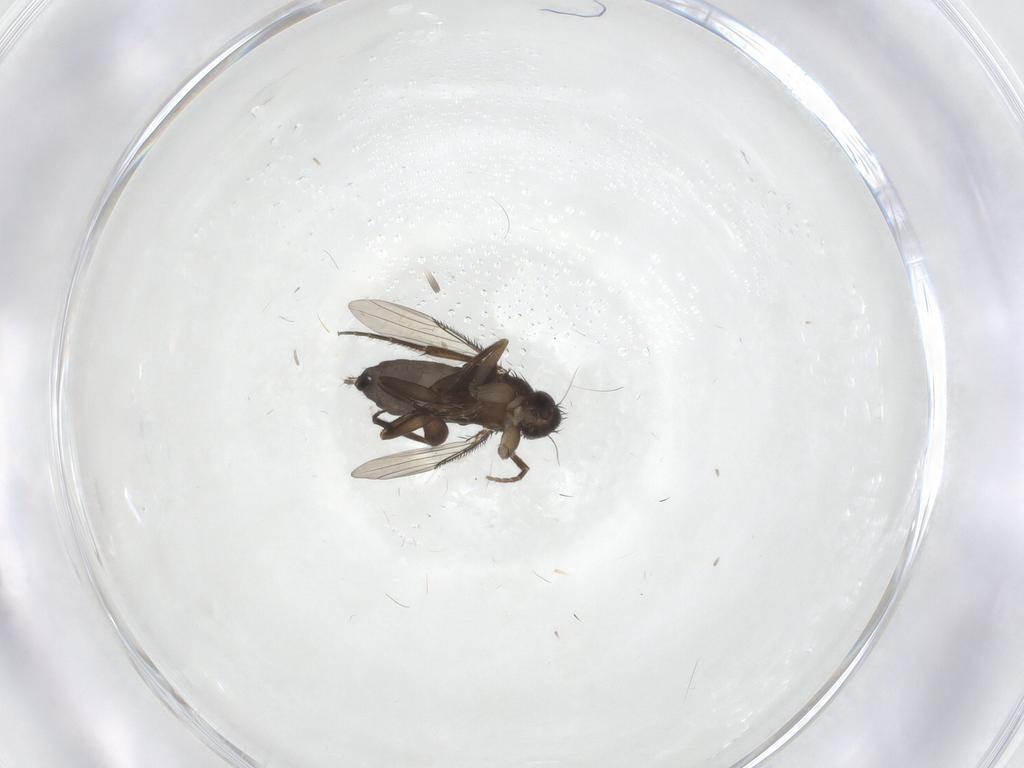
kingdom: Animalia
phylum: Arthropoda
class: Insecta
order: Diptera
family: Phoridae
